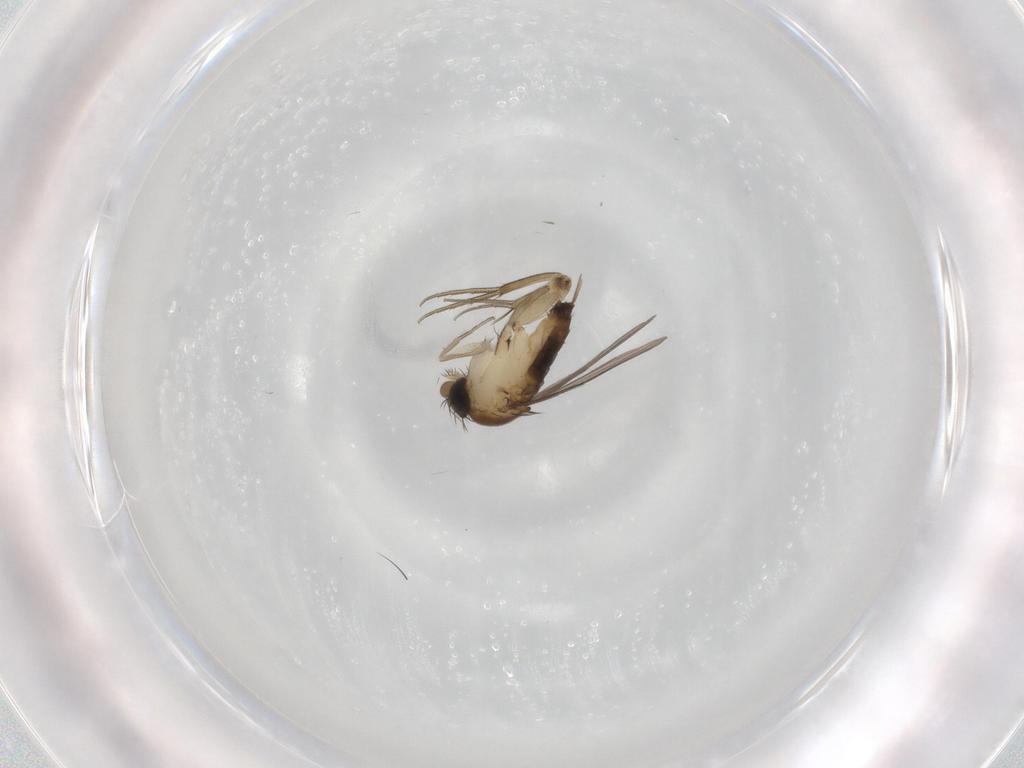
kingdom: Animalia
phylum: Arthropoda
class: Insecta
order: Diptera
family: Phoridae
